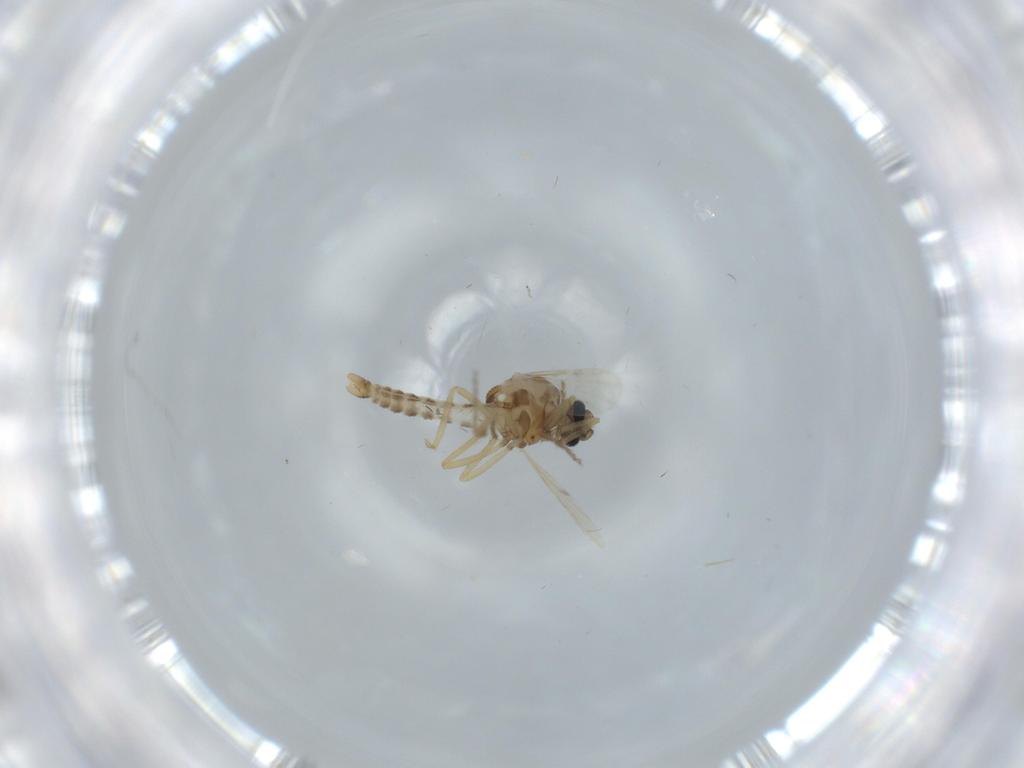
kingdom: Animalia
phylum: Arthropoda
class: Insecta
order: Diptera
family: Ceratopogonidae
